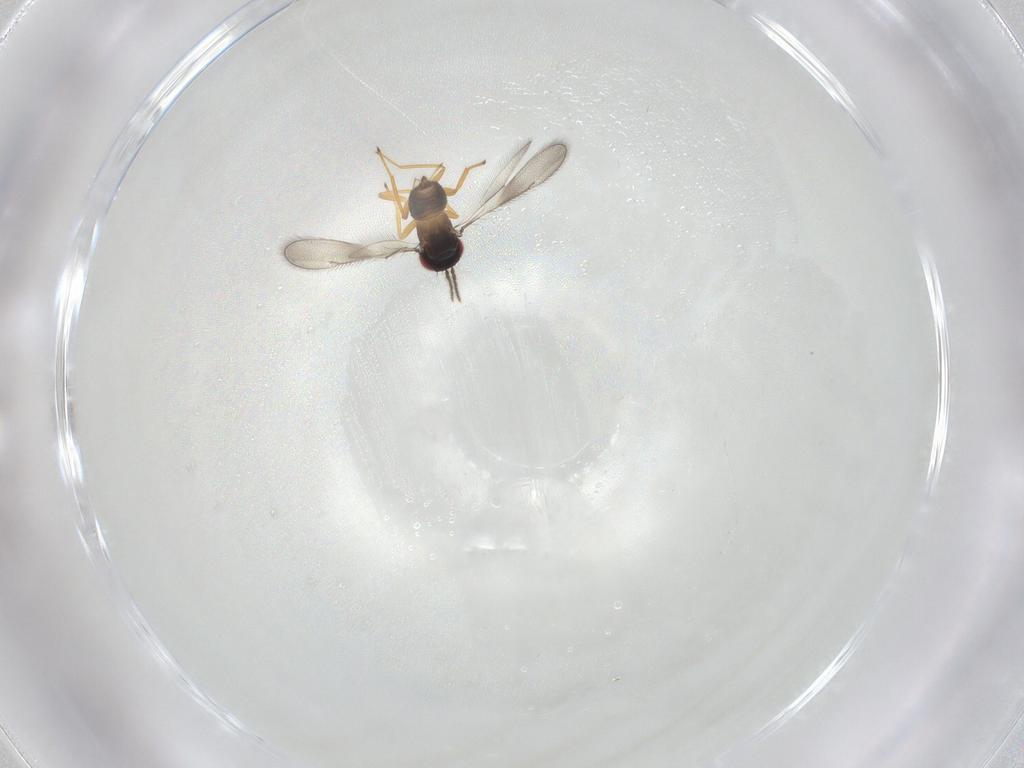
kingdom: Animalia
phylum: Arthropoda
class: Insecta
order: Hymenoptera
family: Eulophidae
